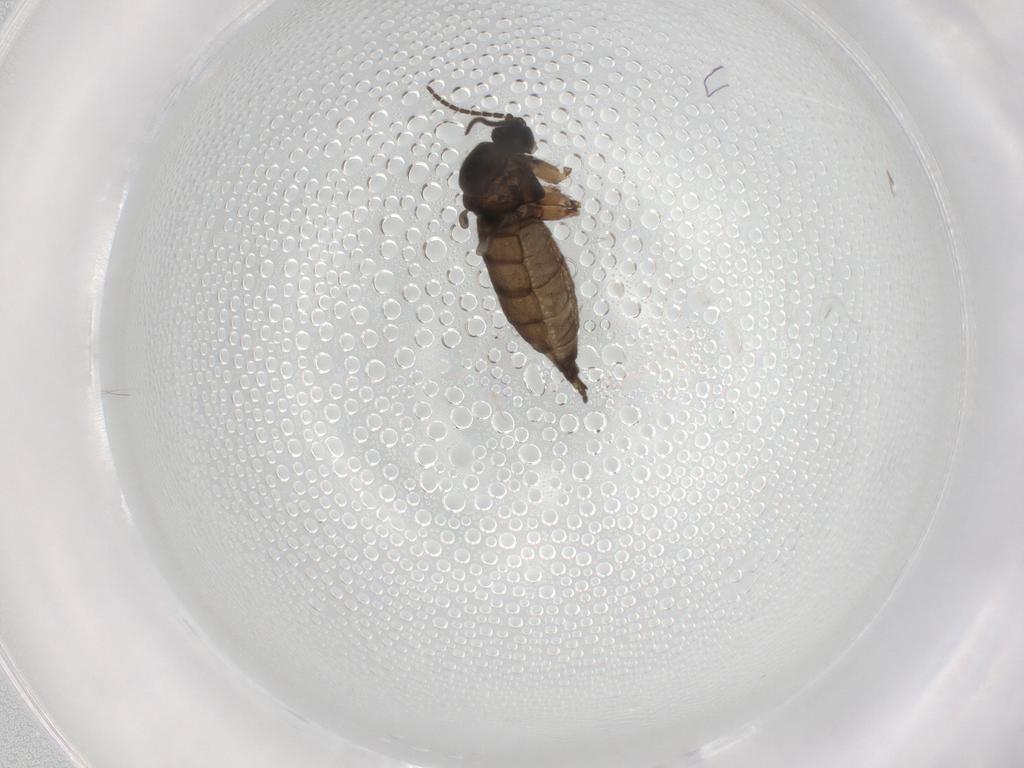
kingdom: Animalia
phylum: Arthropoda
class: Insecta
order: Diptera
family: Sciaridae
